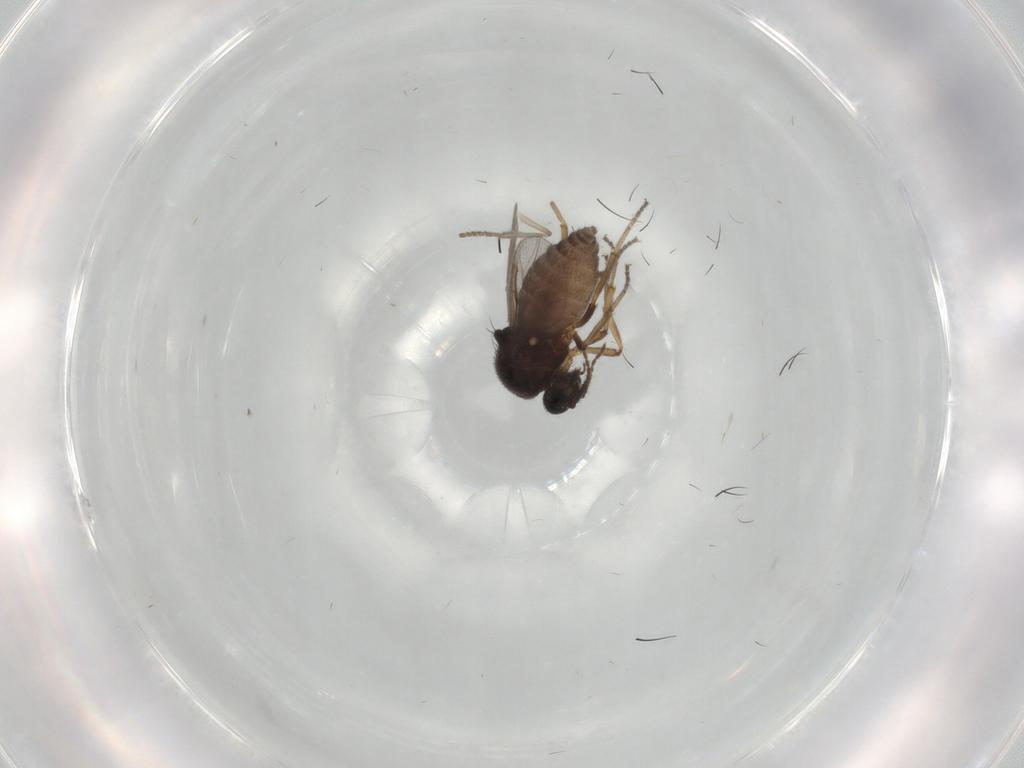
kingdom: Animalia
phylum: Arthropoda
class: Insecta
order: Diptera
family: Ceratopogonidae
